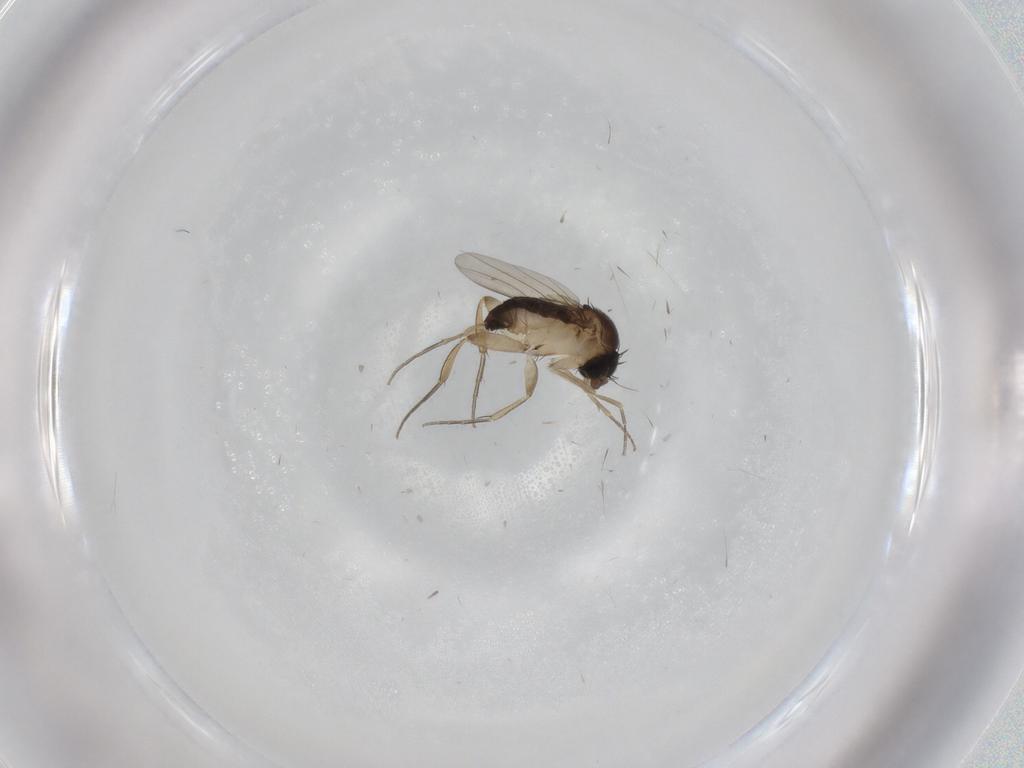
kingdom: Animalia
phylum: Arthropoda
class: Insecta
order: Diptera
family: Phoridae
